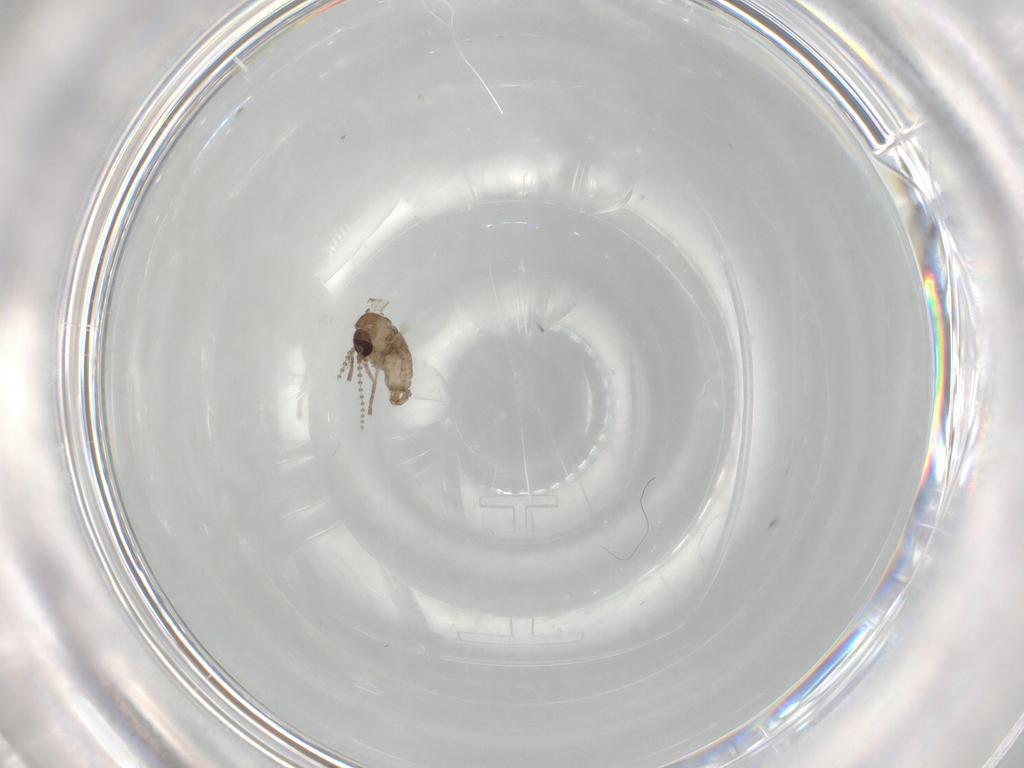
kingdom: Animalia
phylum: Arthropoda
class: Insecta
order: Diptera
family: Psychodidae
